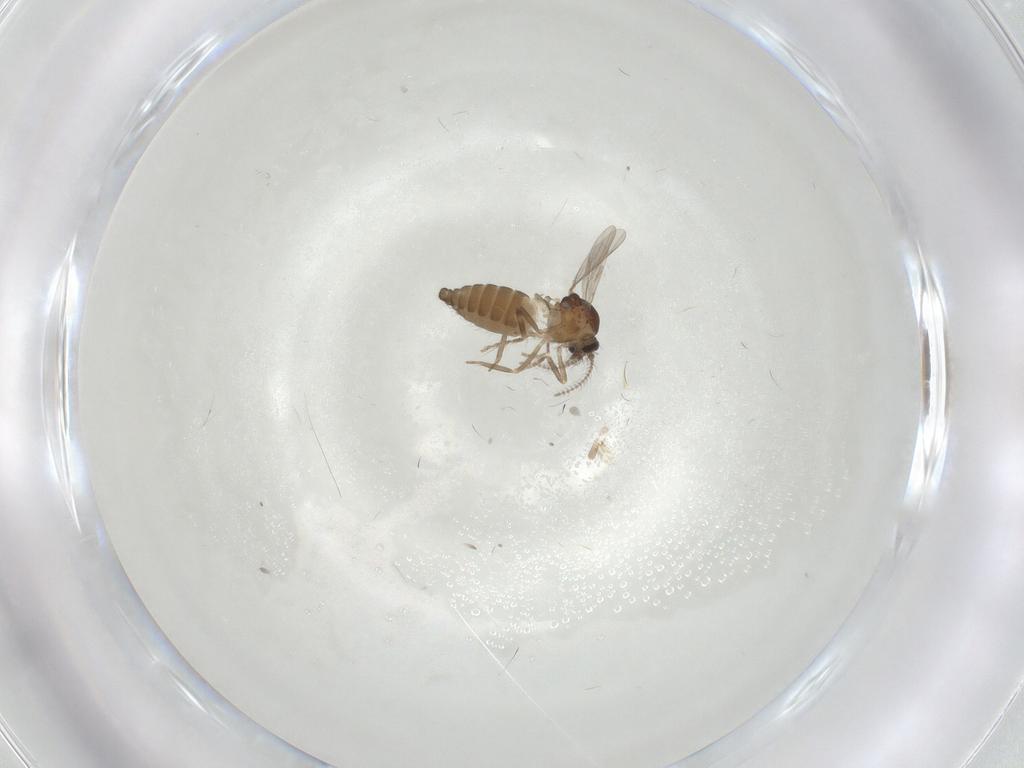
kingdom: Animalia
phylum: Arthropoda
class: Insecta
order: Diptera
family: Ceratopogonidae
